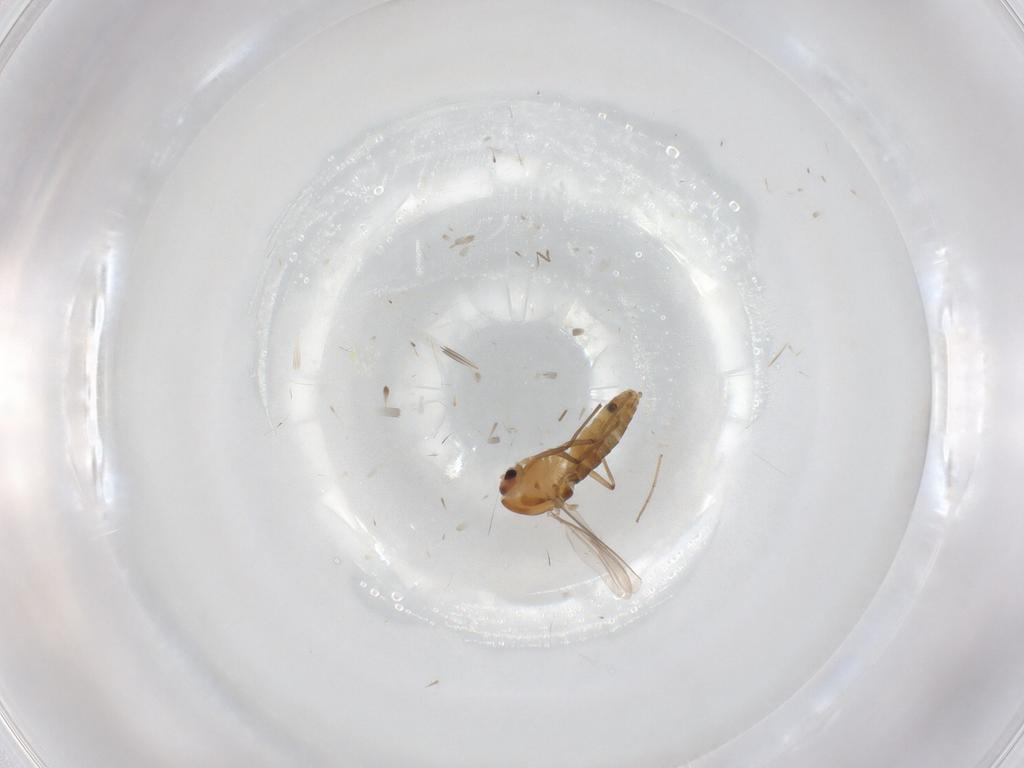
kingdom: Animalia
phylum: Arthropoda
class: Insecta
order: Diptera
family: Chironomidae
